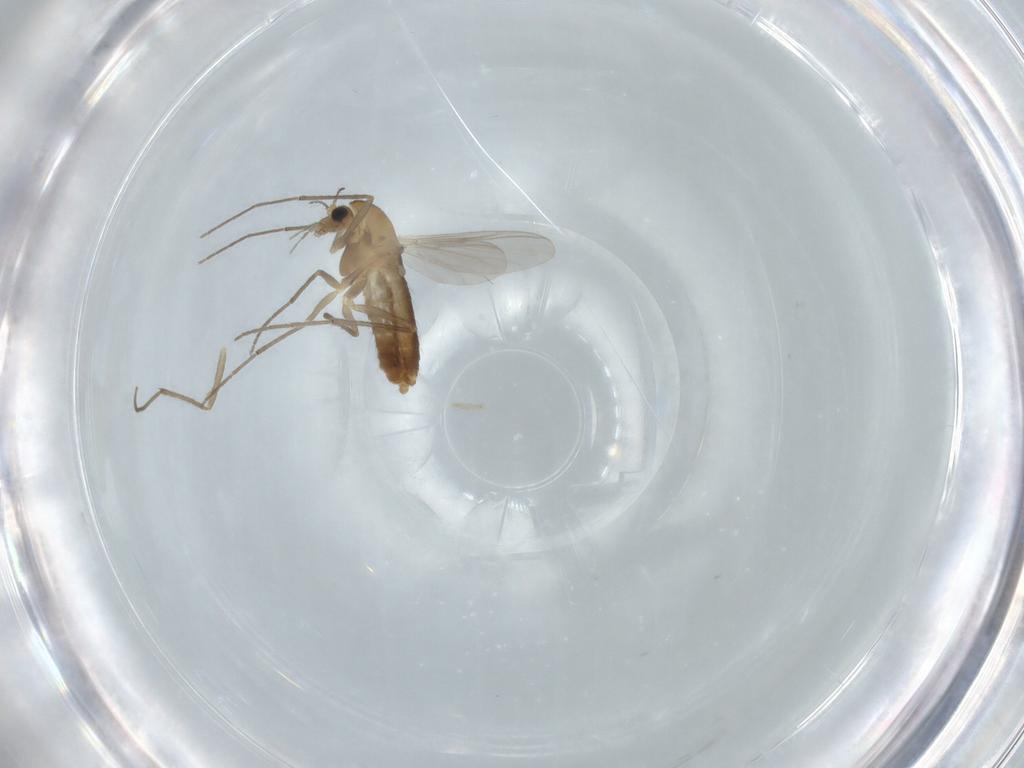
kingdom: Animalia
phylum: Arthropoda
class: Insecta
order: Diptera
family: Chironomidae
